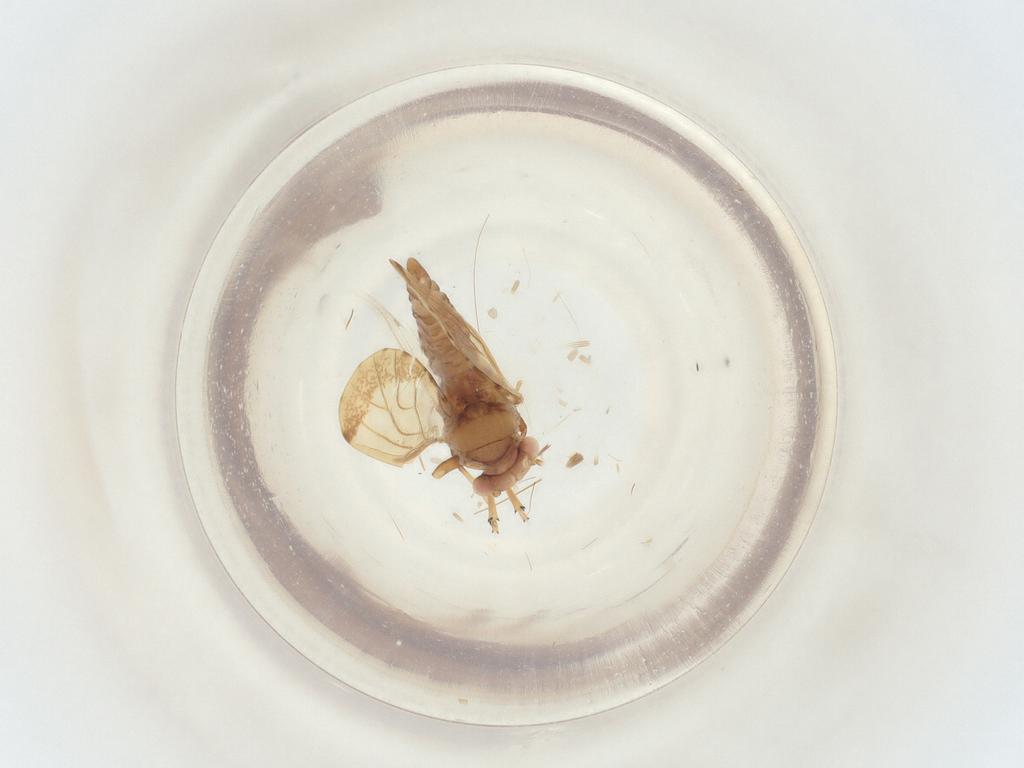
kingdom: Animalia
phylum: Arthropoda
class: Insecta
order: Hemiptera
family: Psyllidae
